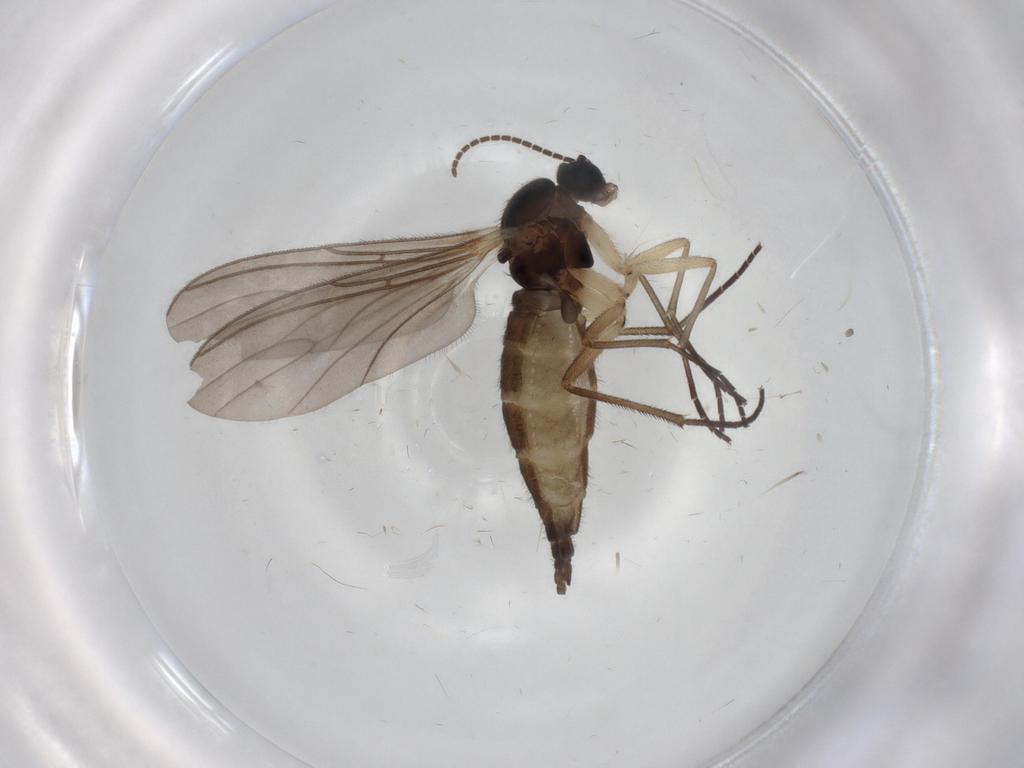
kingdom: Animalia
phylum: Arthropoda
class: Insecta
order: Diptera
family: Sciaridae
